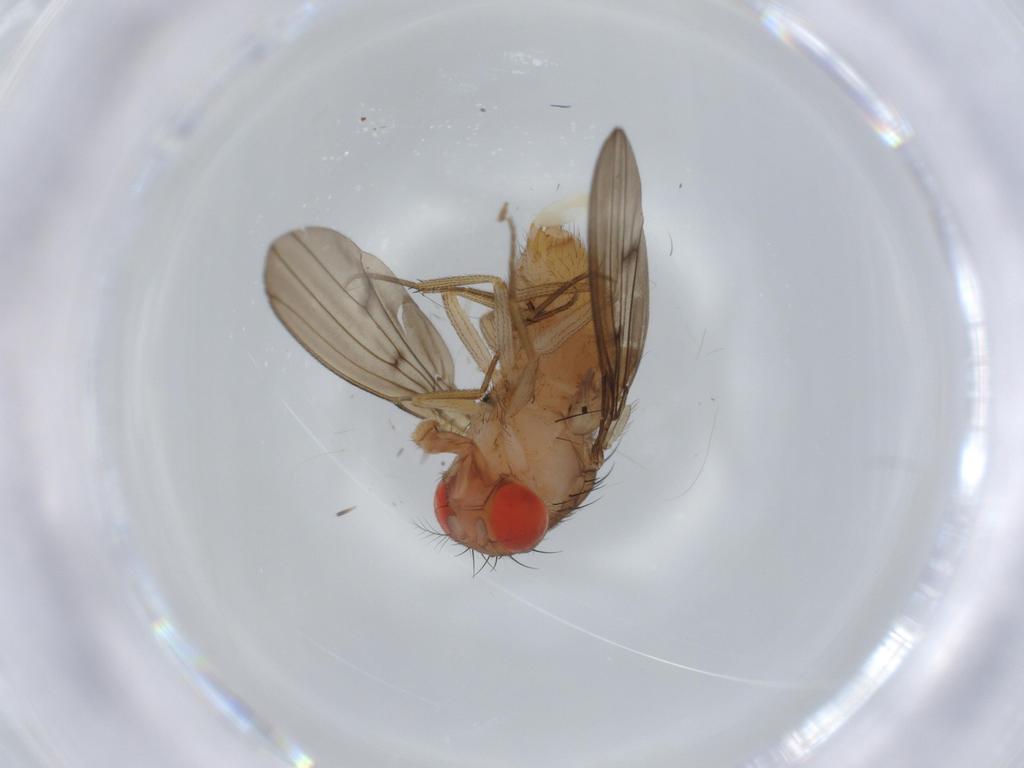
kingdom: Animalia
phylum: Arthropoda
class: Insecta
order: Diptera
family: Drosophilidae
